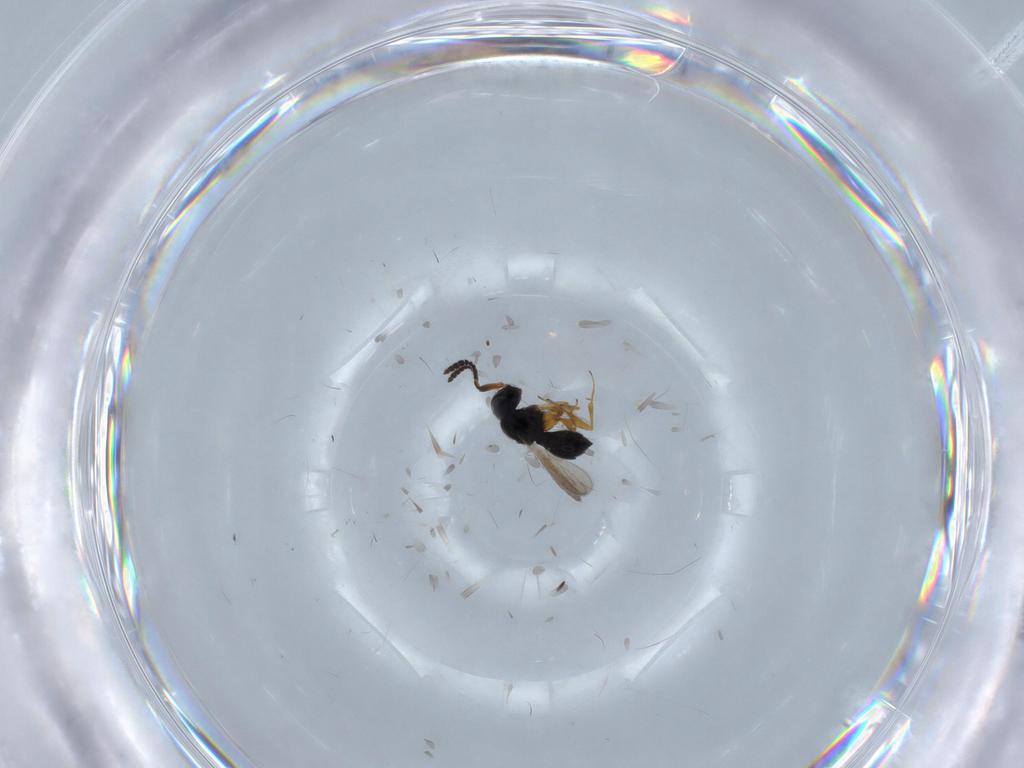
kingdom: Animalia
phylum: Arthropoda
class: Insecta
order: Hymenoptera
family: Scelionidae
